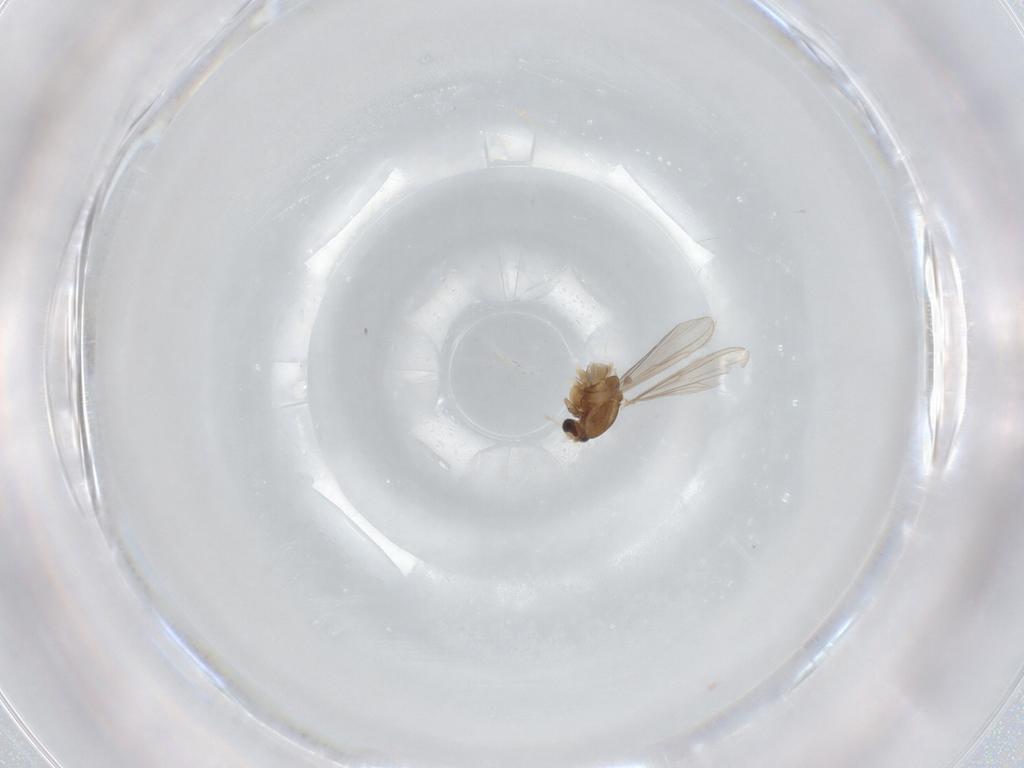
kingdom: Animalia
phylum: Arthropoda
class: Insecta
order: Diptera
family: Chironomidae
